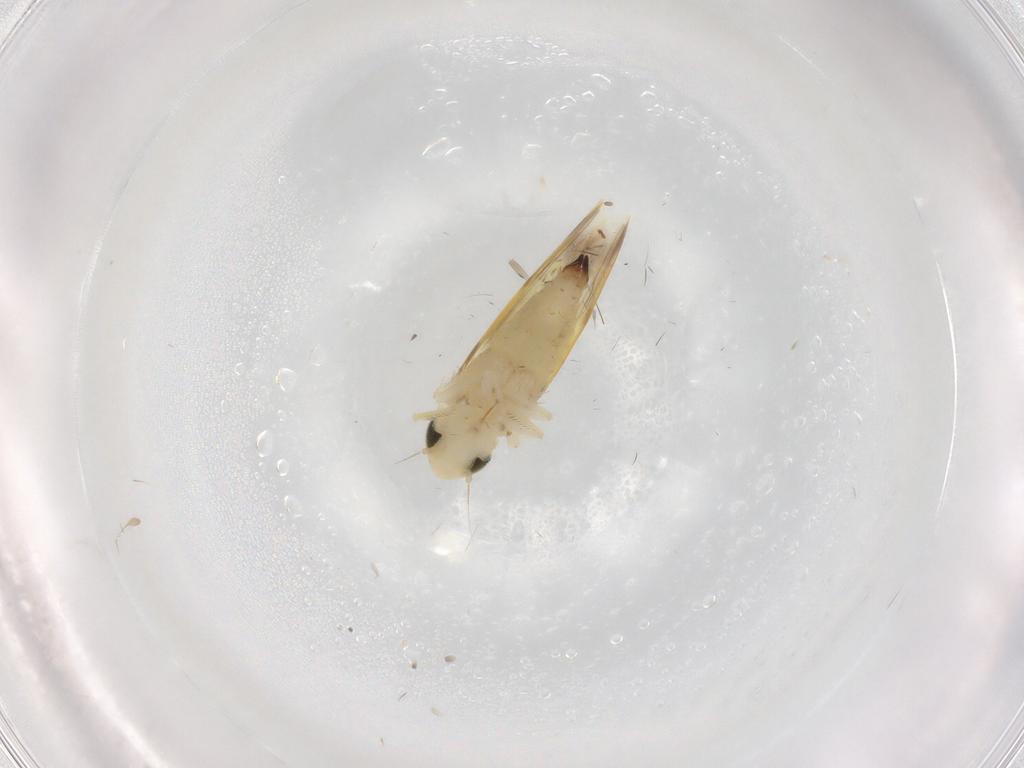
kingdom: Animalia
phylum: Arthropoda
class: Insecta
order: Hemiptera
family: Cicadellidae
